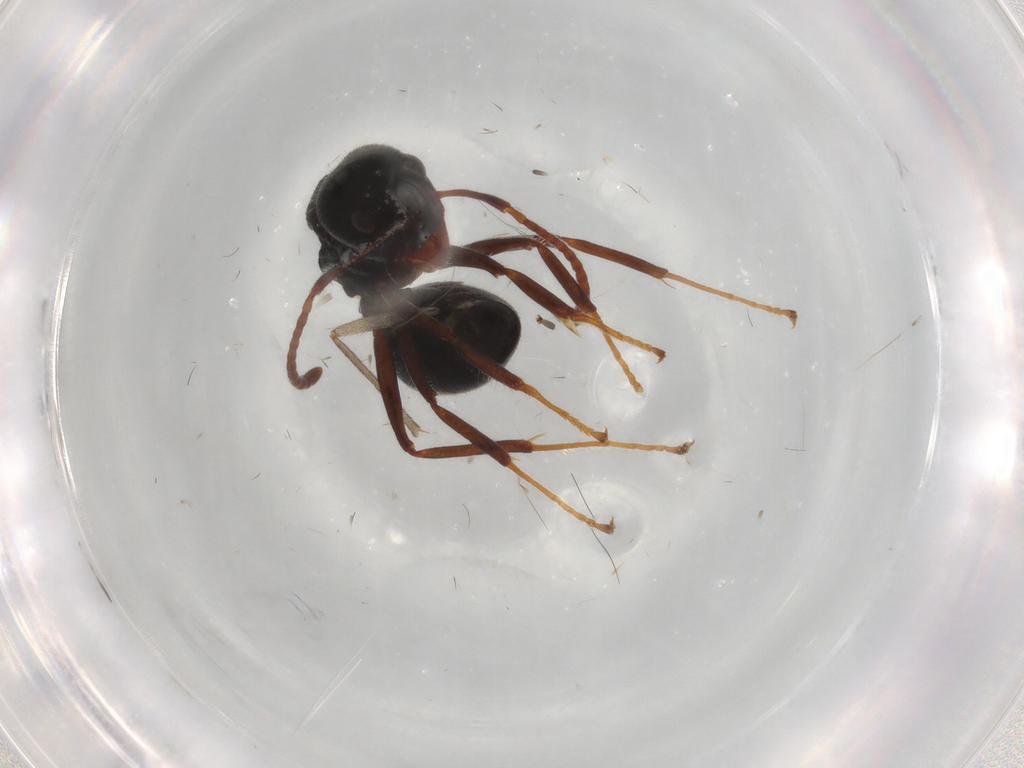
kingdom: Animalia
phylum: Arthropoda
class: Insecta
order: Hymenoptera
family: Formicidae
